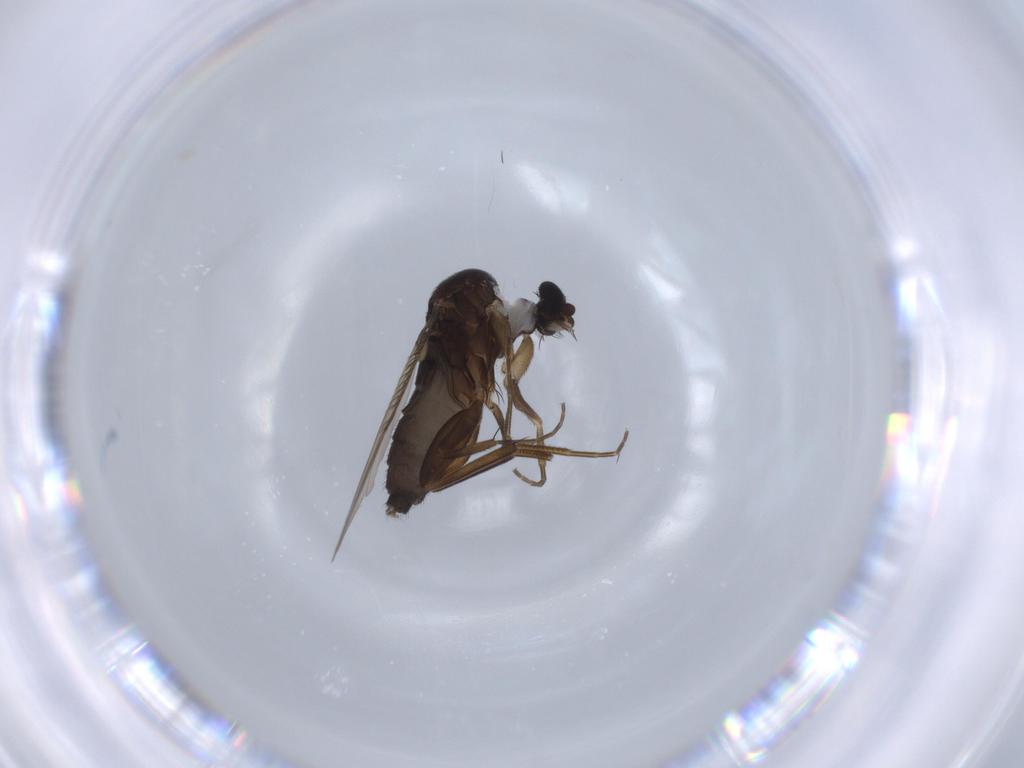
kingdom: Animalia
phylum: Arthropoda
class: Insecta
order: Diptera
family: Phoridae
